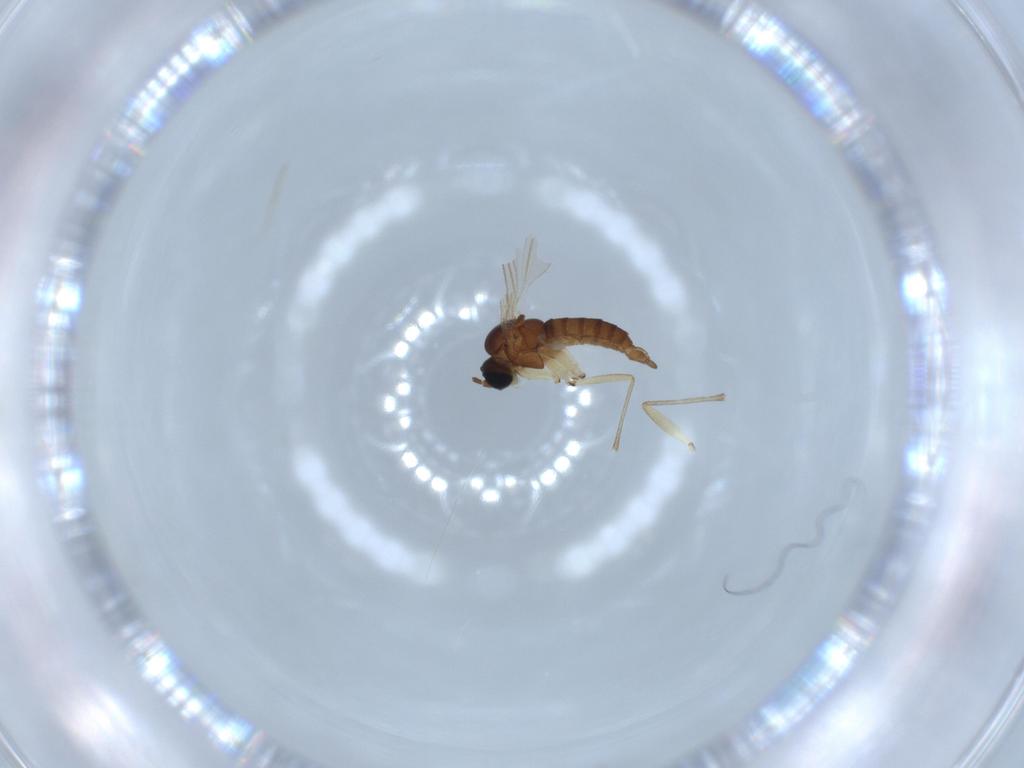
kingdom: Animalia
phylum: Arthropoda
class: Insecta
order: Diptera
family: Sciaridae
